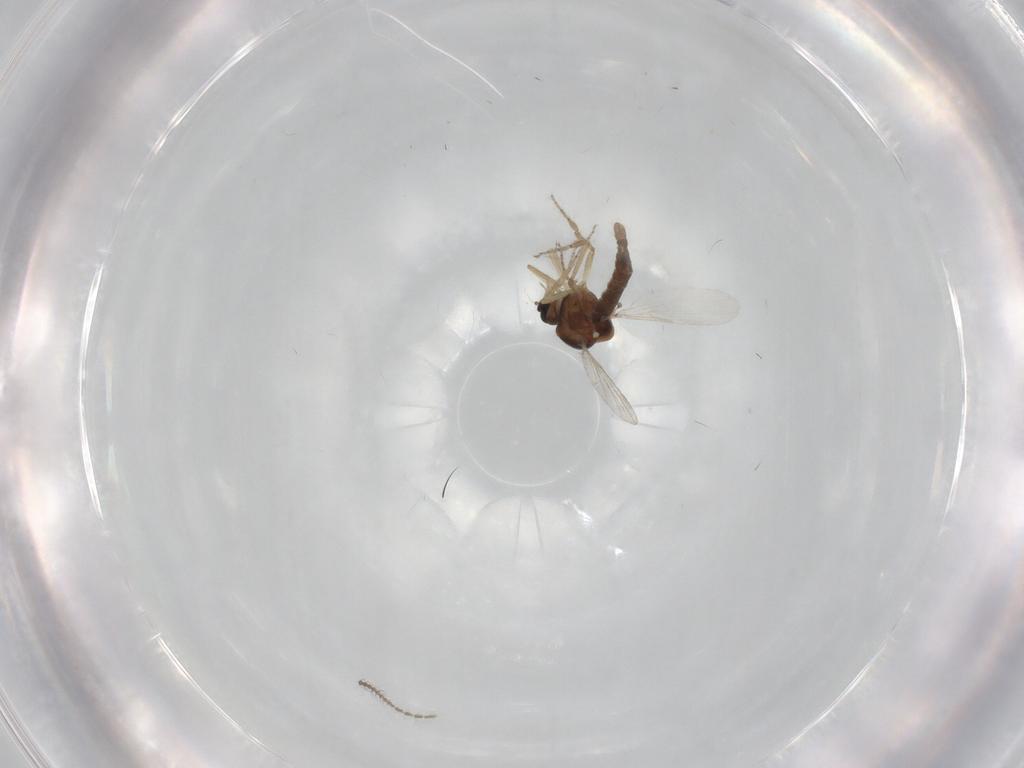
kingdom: Animalia
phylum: Arthropoda
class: Insecta
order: Diptera
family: Ceratopogonidae
